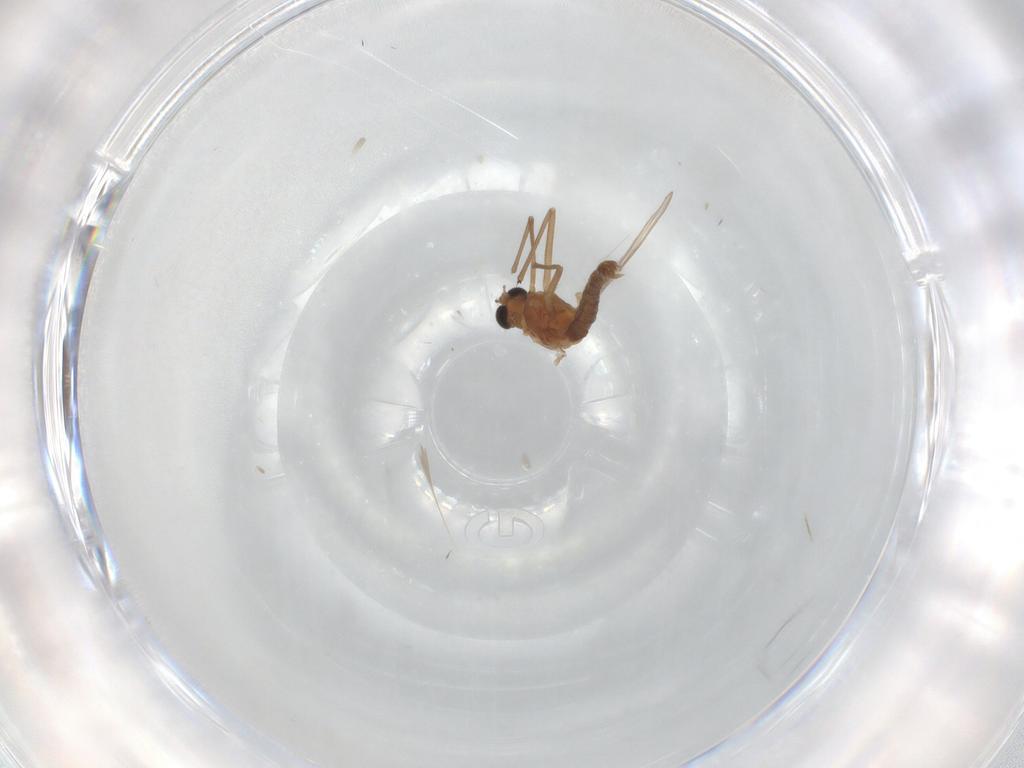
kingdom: Animalia
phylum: Arthropoda
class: Insecta
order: Diptera
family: Chironomidae
